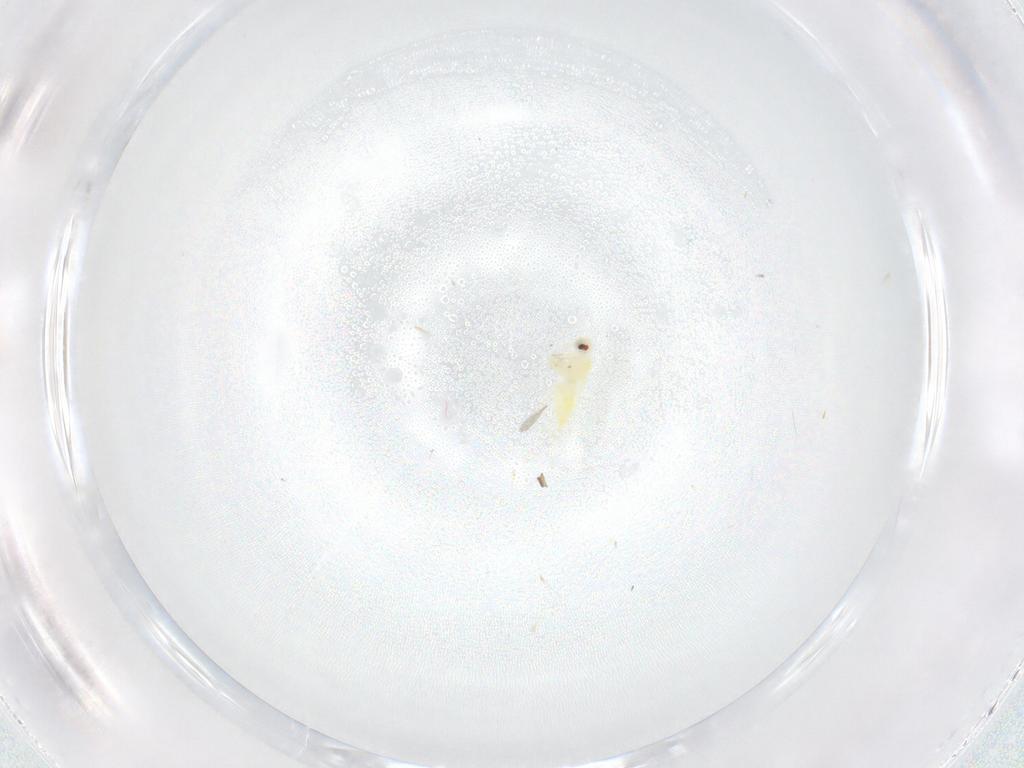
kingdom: Animalia
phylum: Arthropoda
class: Insecta
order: Hemiptera
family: Aleyrodidae
